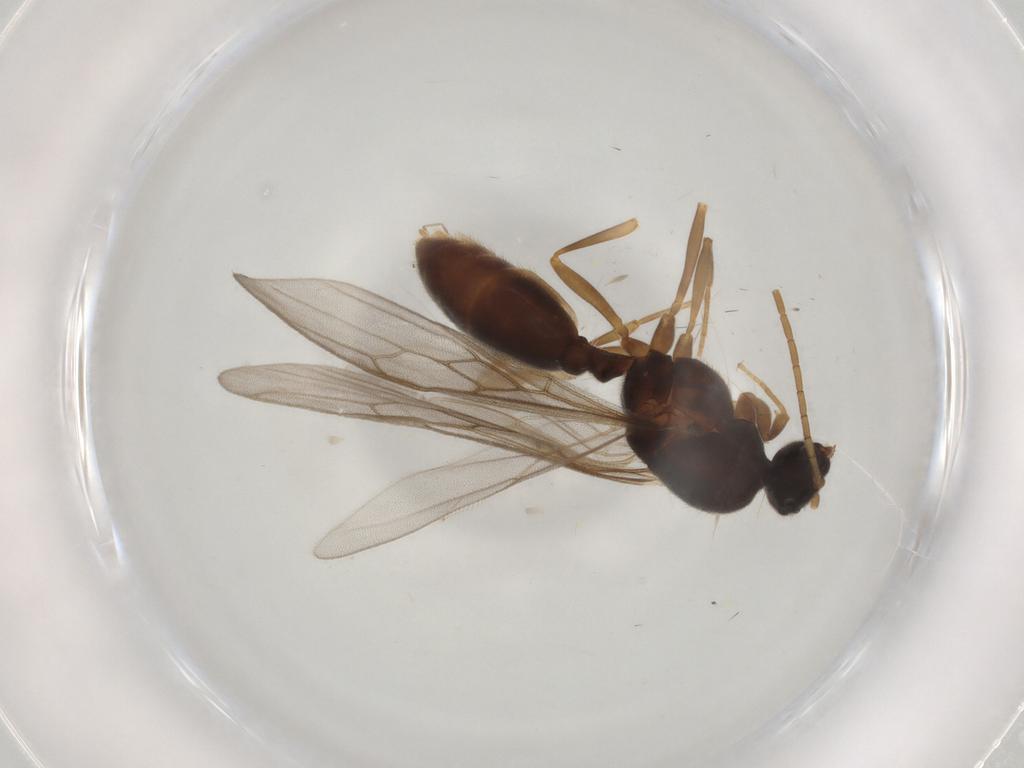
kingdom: Animalia
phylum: Arthropoda
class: Insecta
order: Hymenoptera
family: Formicidae
